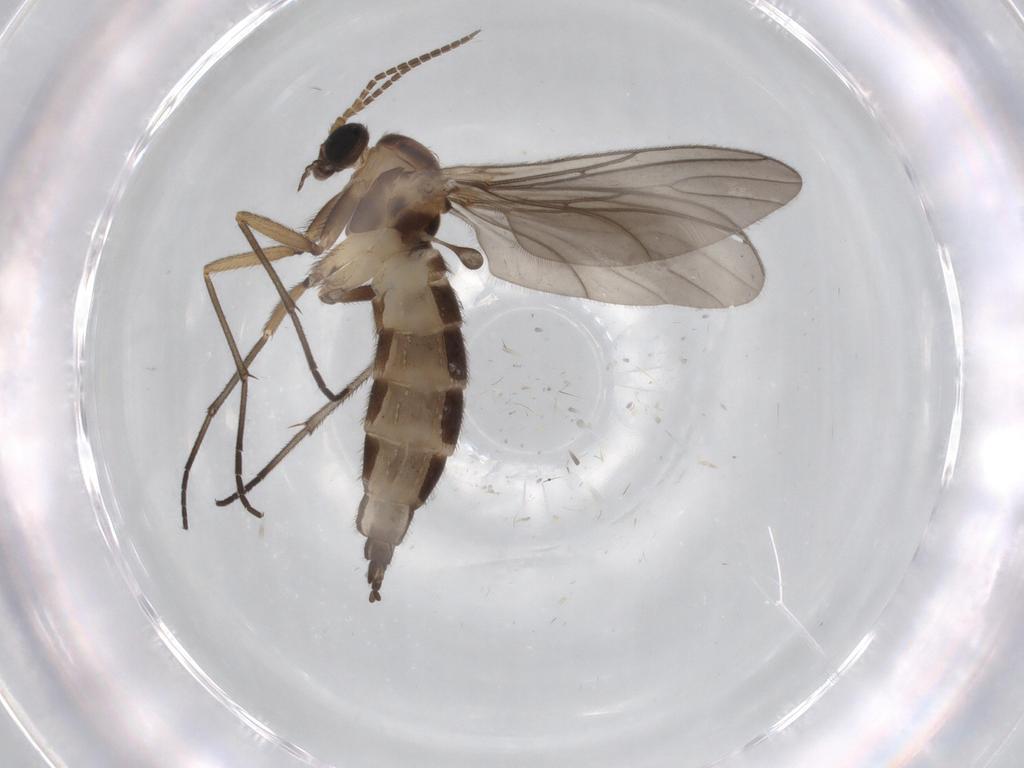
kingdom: Animalia
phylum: Arthropoda
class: Insecta
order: Diptera
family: Sciaridae
